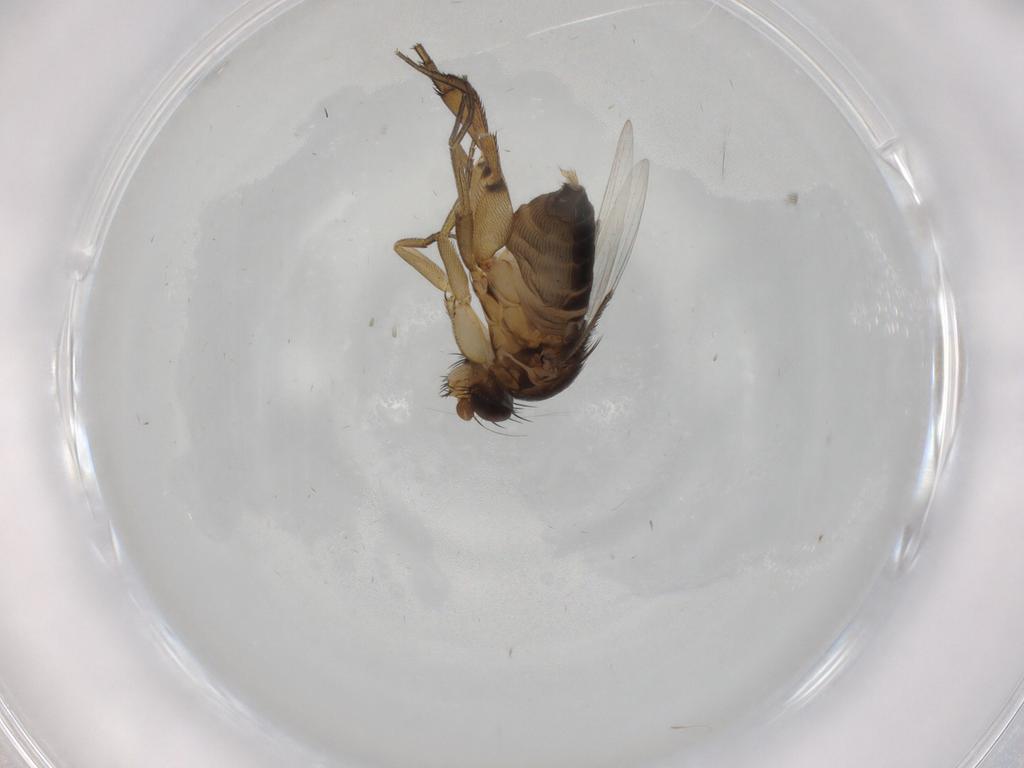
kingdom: Animalia
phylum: Arthropoda
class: Insecta
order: Diptera
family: Phoridae
